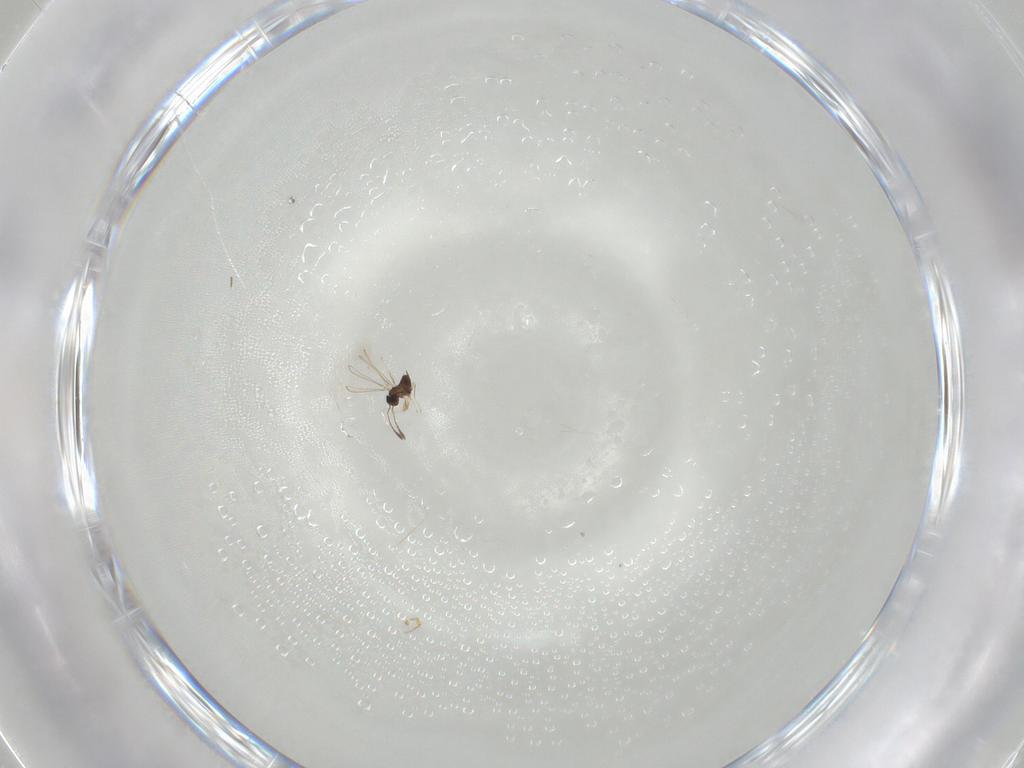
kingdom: Animalia
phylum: Arthropoda
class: Insecta
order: Hymenoptera
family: Scelionidae
